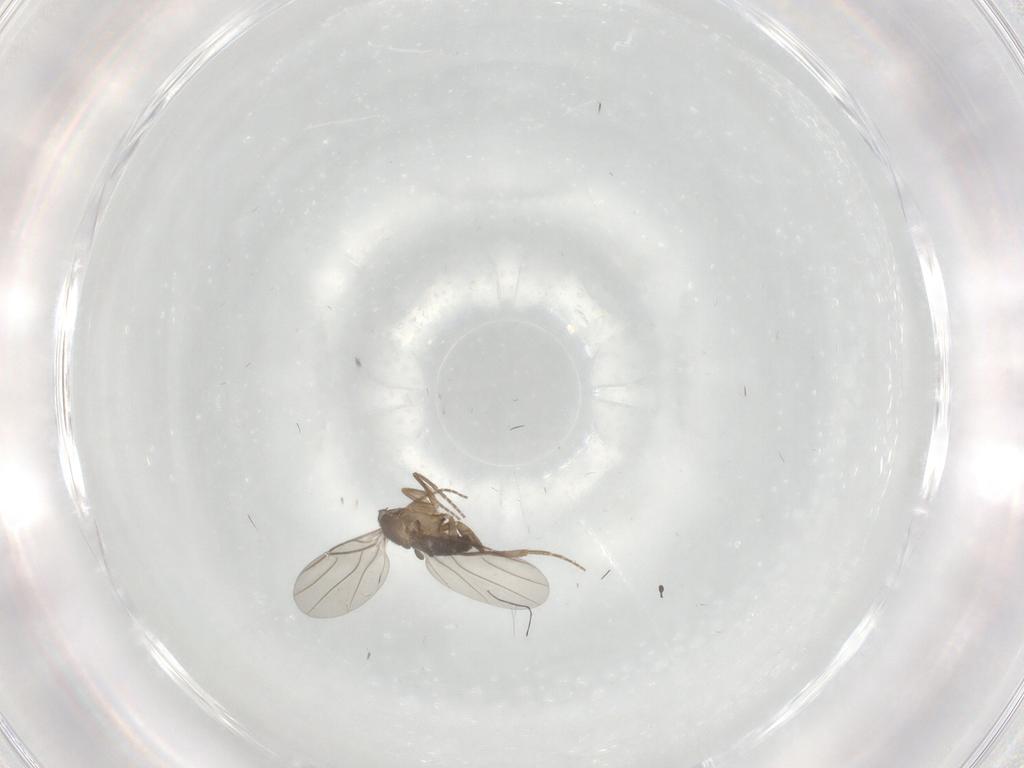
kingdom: Animalia
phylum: Arthropoda
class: Insecta
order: Diptera
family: Phoridae
